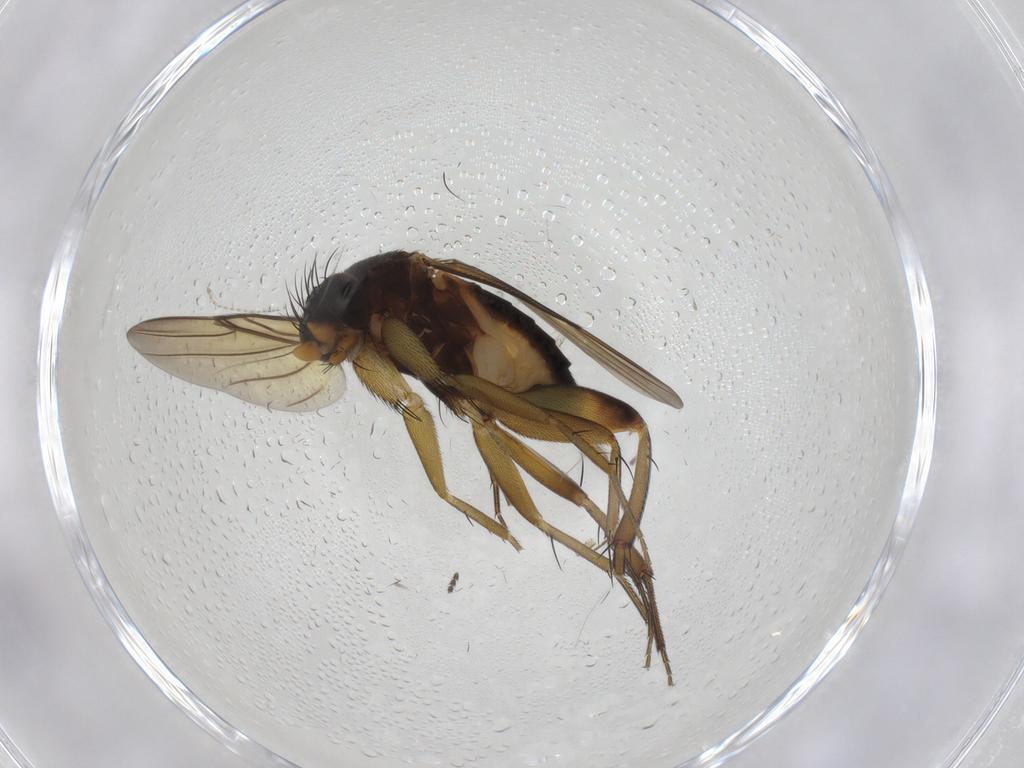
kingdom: Animalia
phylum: Arthropoda
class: Insecta
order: Diptera
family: Phoridae
